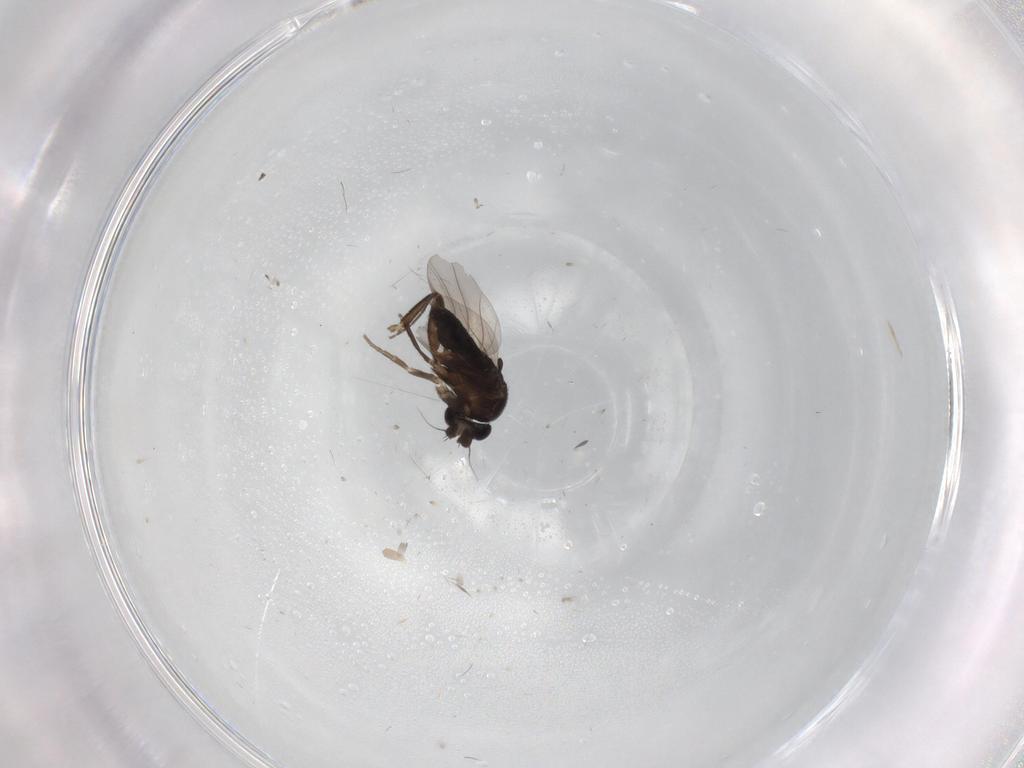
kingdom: Animalia
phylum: Arthropoda
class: Insecta
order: Diptera
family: Chironomidae
